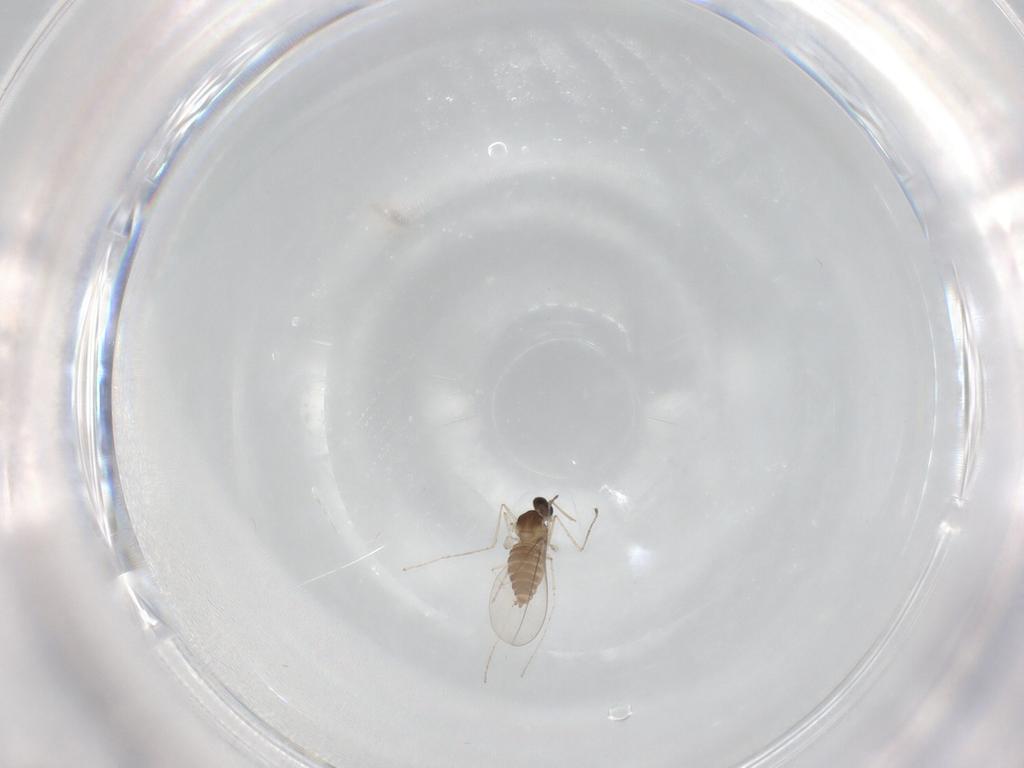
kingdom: Animalia
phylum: Arthropoda
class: Insecta
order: Diptera
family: Cecidomyiidae
